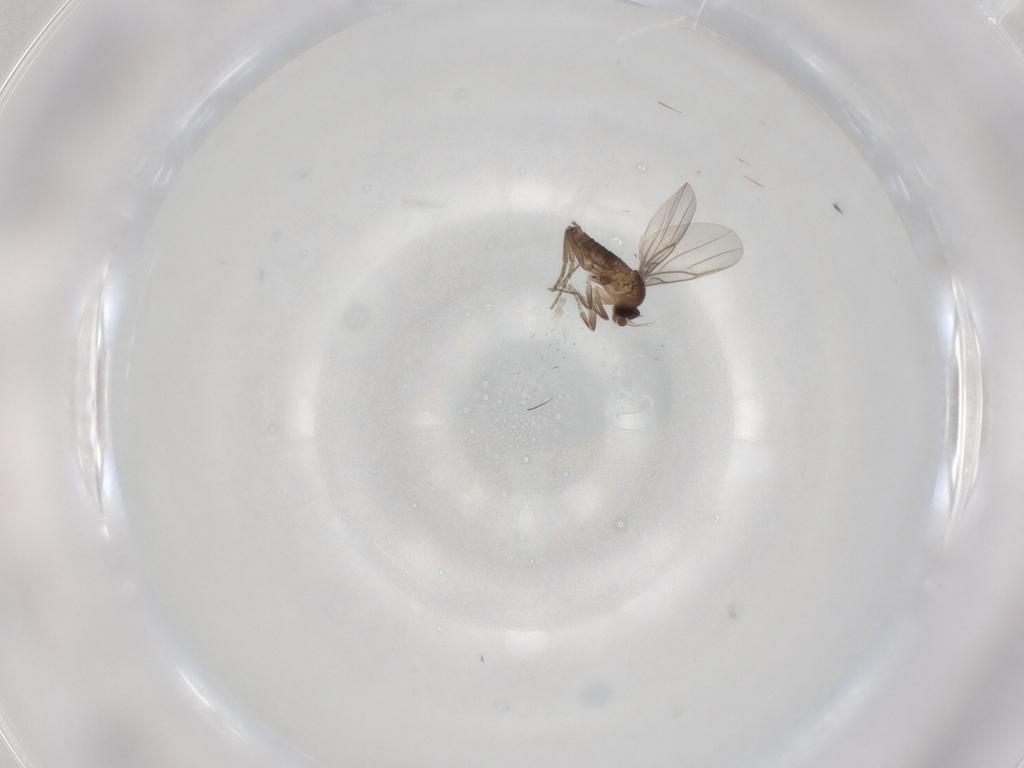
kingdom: Animalia
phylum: Arthropoda
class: Insecta
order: Diptera
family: Phoridae
